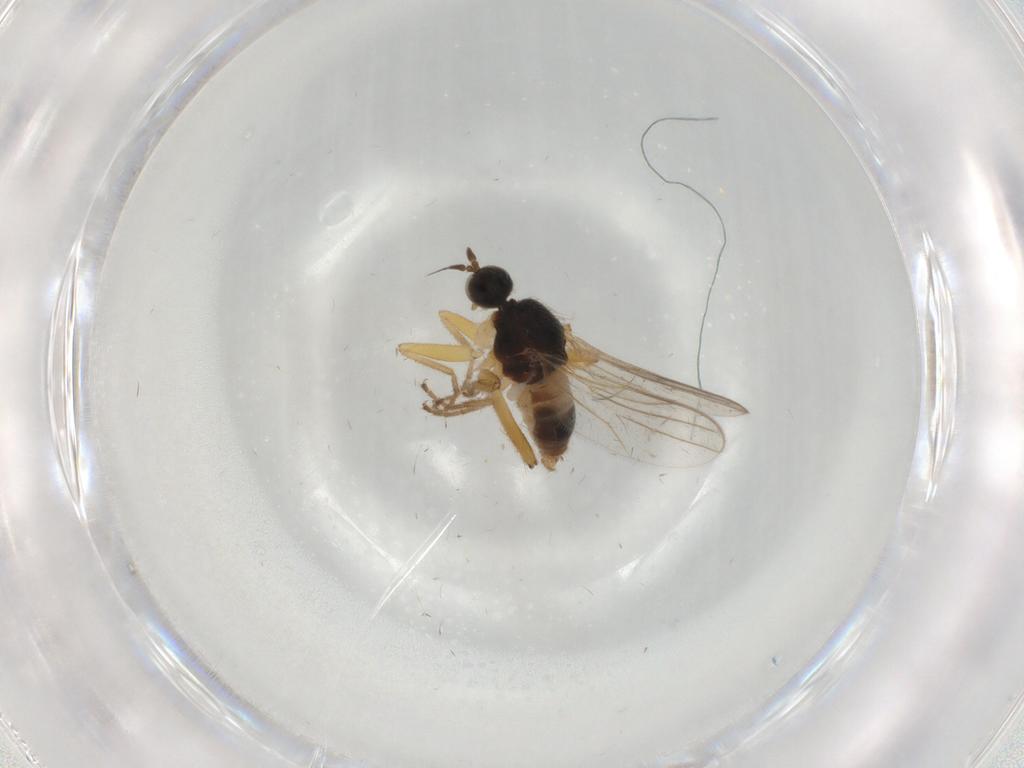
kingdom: Animalia
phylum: Arthropoda
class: Insecta
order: Diptera
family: Hybotidae
